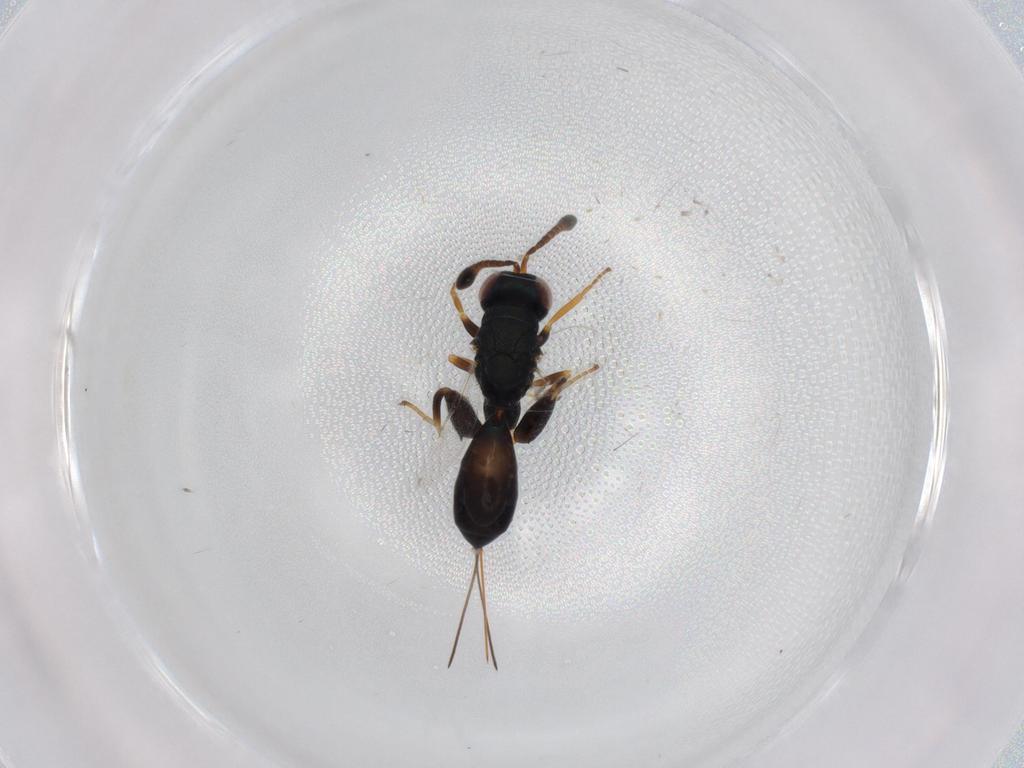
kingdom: Animalia
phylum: Arthropoda
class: Insecta
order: Hymenoptera
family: Torymidae
